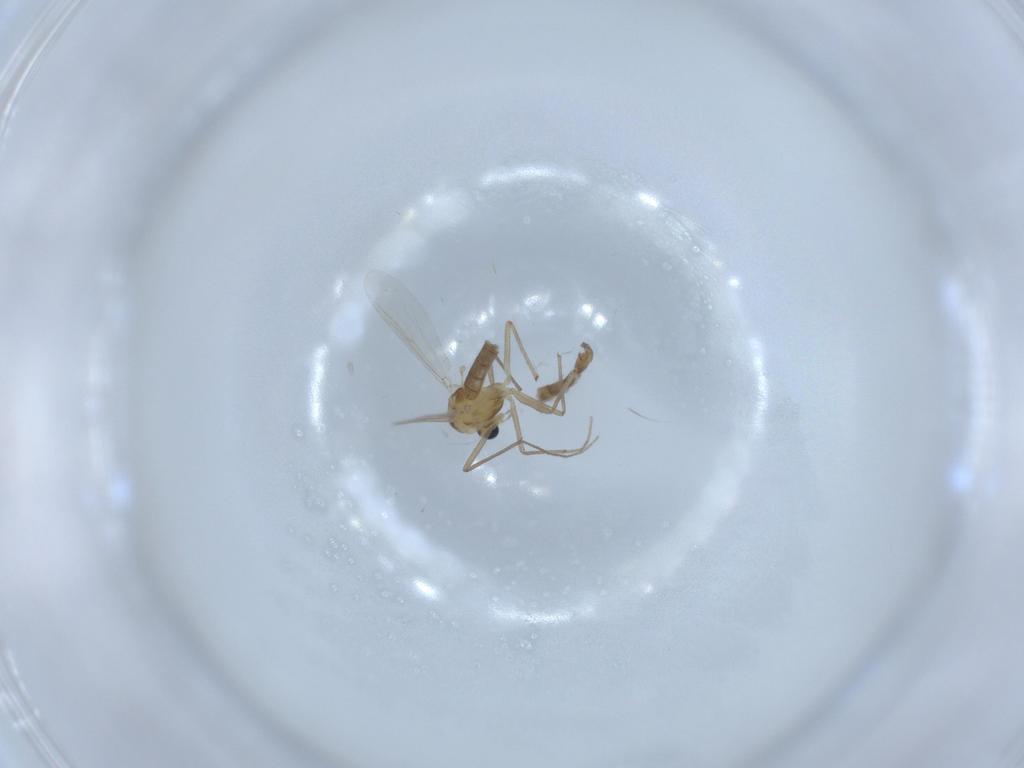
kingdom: Animalia
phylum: Arthropoda
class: Insecta
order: Diptera
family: Chironomidae
